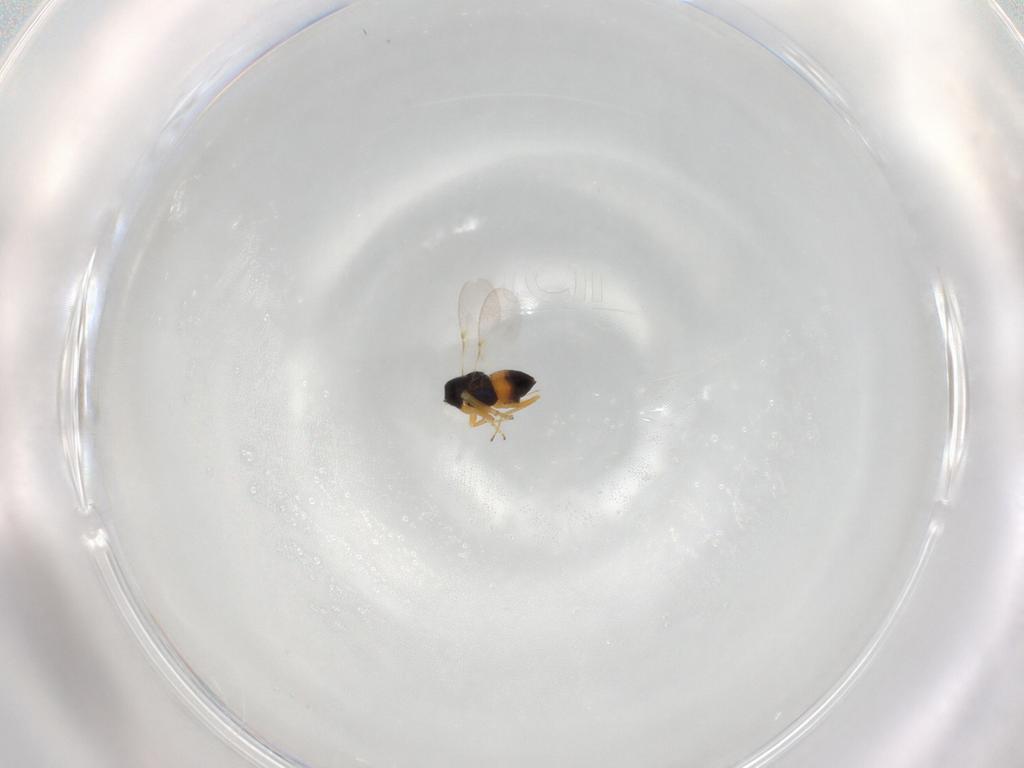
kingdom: Animalia
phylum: Arthropoda
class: Insecta
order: Hymenoptera
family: Encyrtidae
